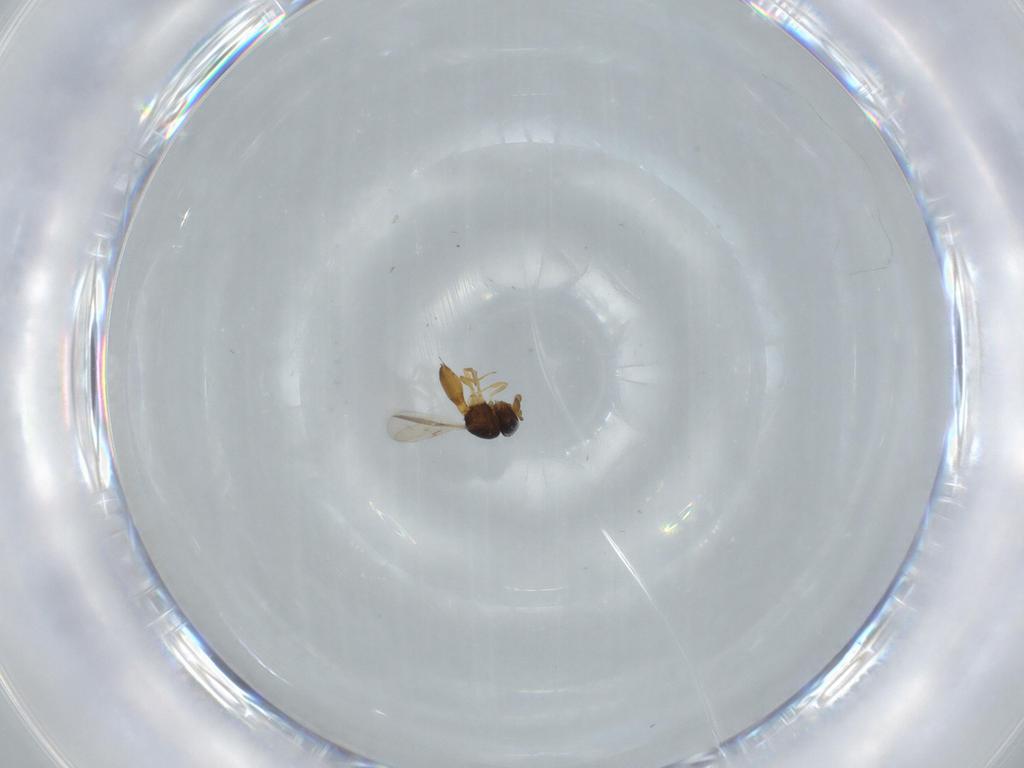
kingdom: Animalia
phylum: Arthropoda
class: Insecta
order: Hymenoptera
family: Scelionidae
